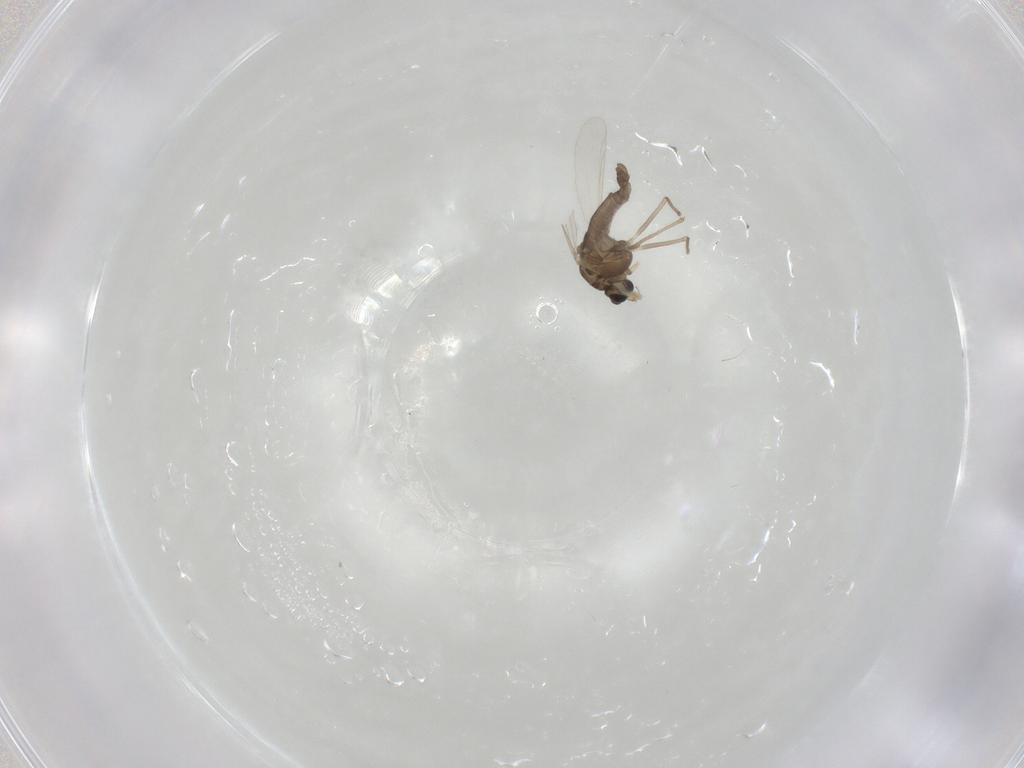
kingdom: Animalia
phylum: Arthropoda
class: Insecta
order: Diptera
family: Chironomidae
